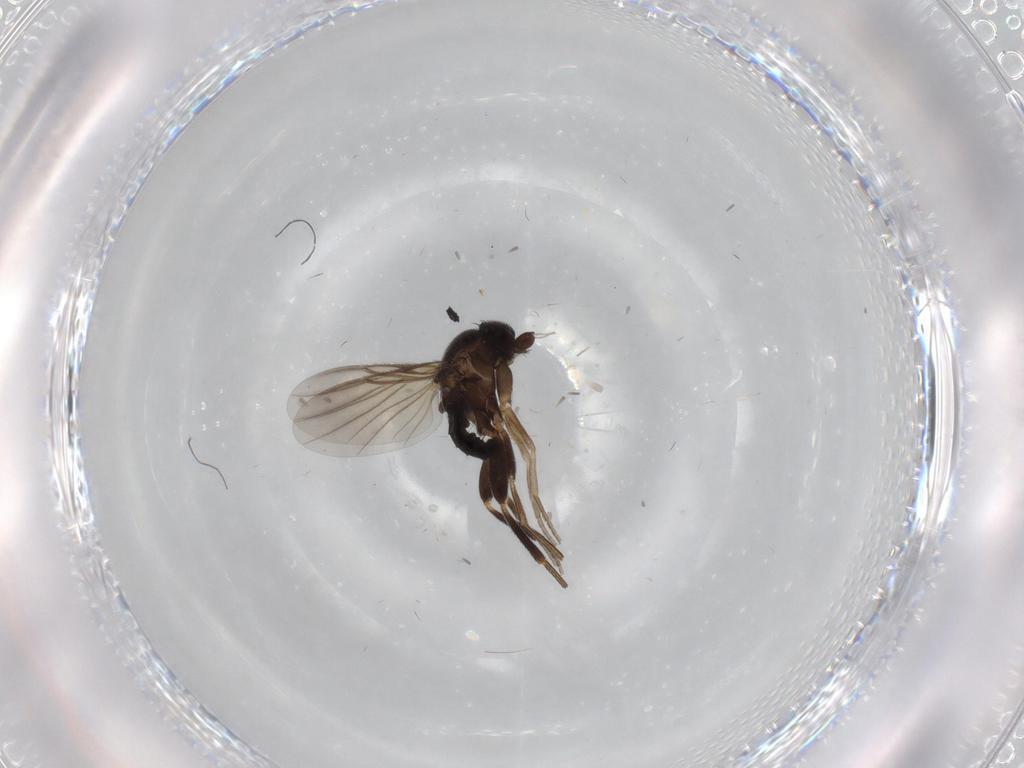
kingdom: Animalia
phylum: Arthropoda
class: Insecta
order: Diptera
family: Phoridae
